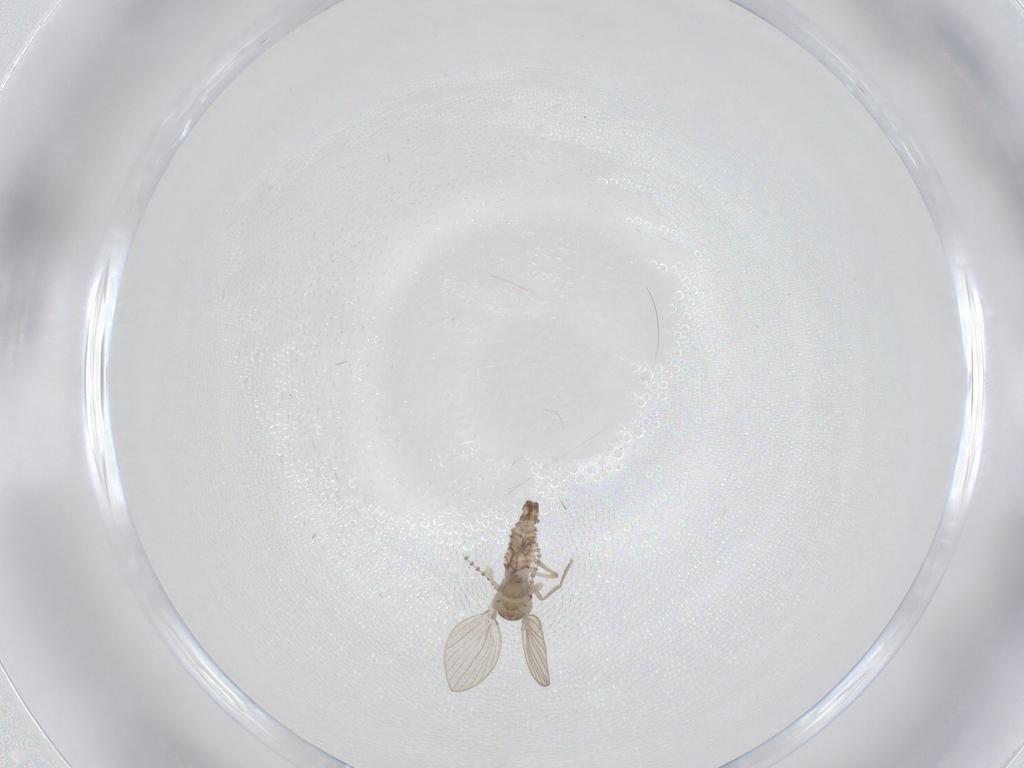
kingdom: Animalia
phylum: Arthropoda
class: Insecta
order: Diptera
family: Psychodidae
